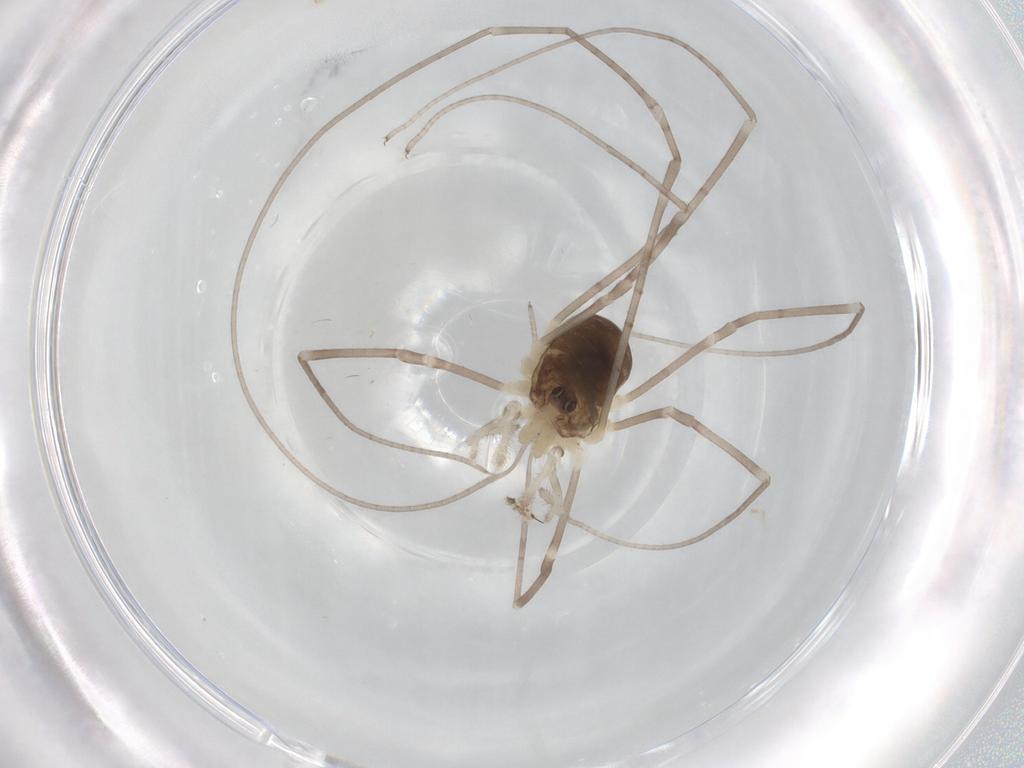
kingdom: Animalia
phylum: Arthropoda
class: Arachnida
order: Opiliones
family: Sclerosomatidae
